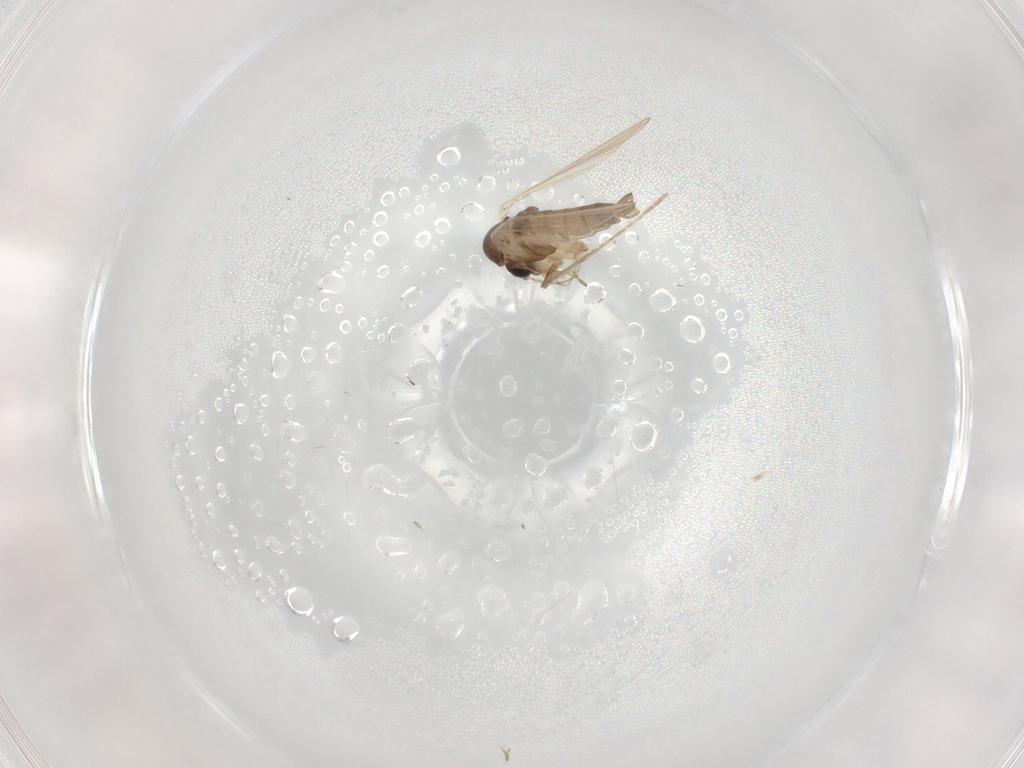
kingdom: Animalia
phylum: Arthropoda
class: Insecta
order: Diptera
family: Psychodidae
